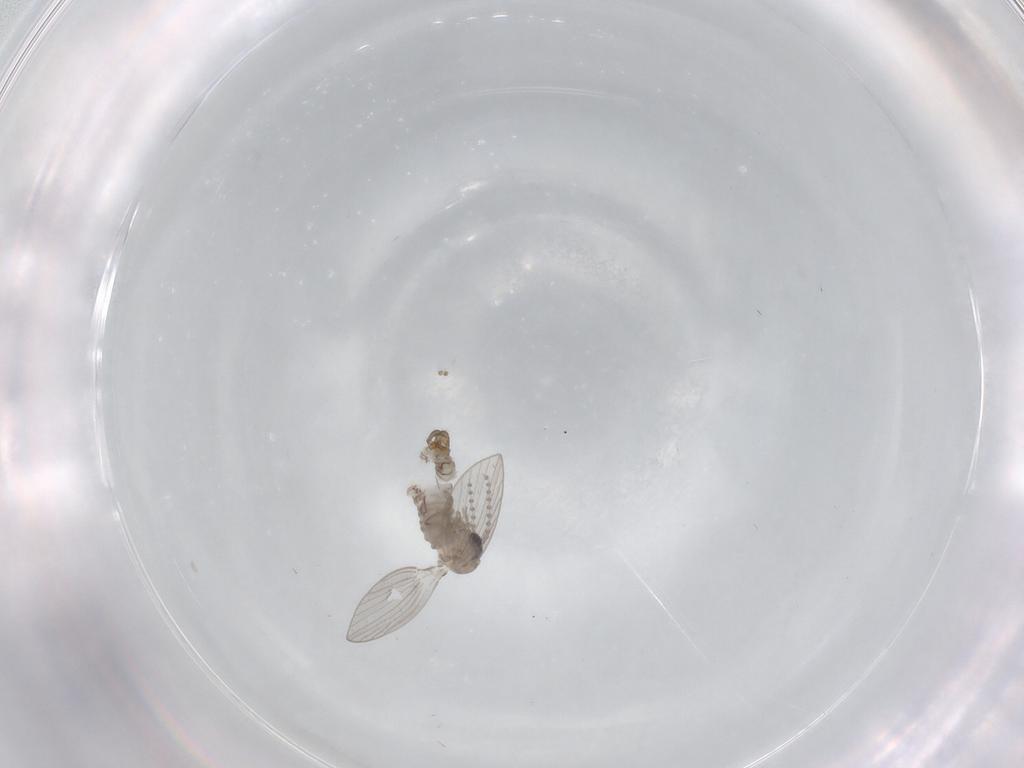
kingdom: Animalia
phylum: Arthropoda
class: Insecta
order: Diptera
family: Psychodidae
